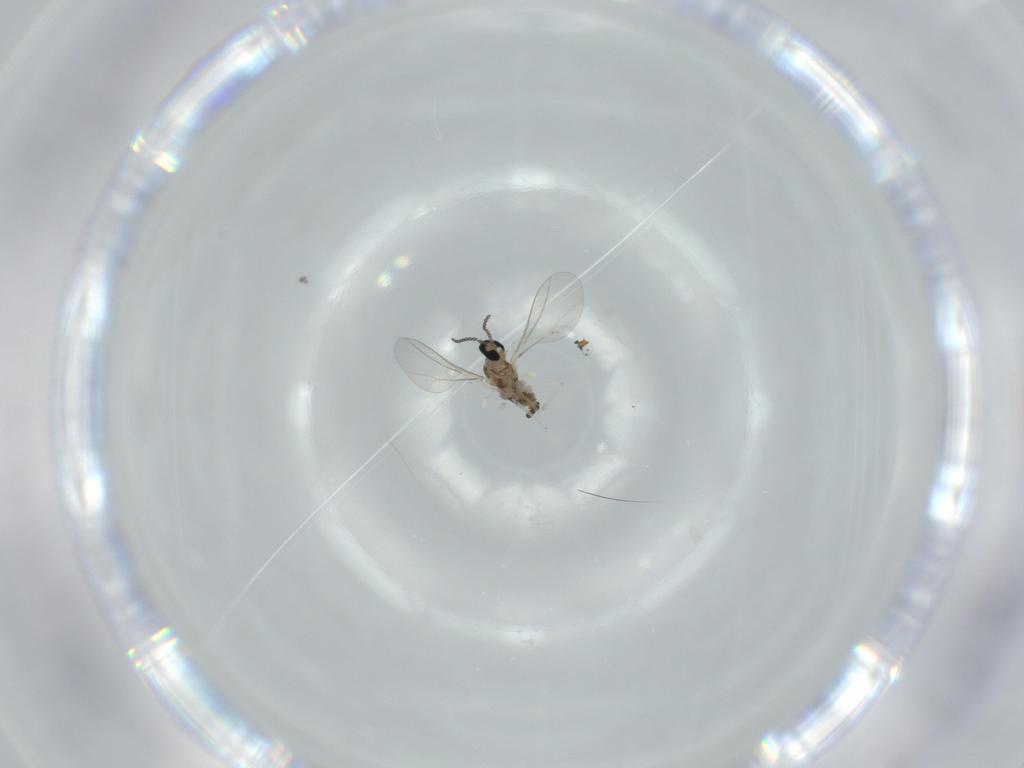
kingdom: Animalia
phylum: Arthropoda
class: Insecta
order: Diptera
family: Cecidomyiidae
